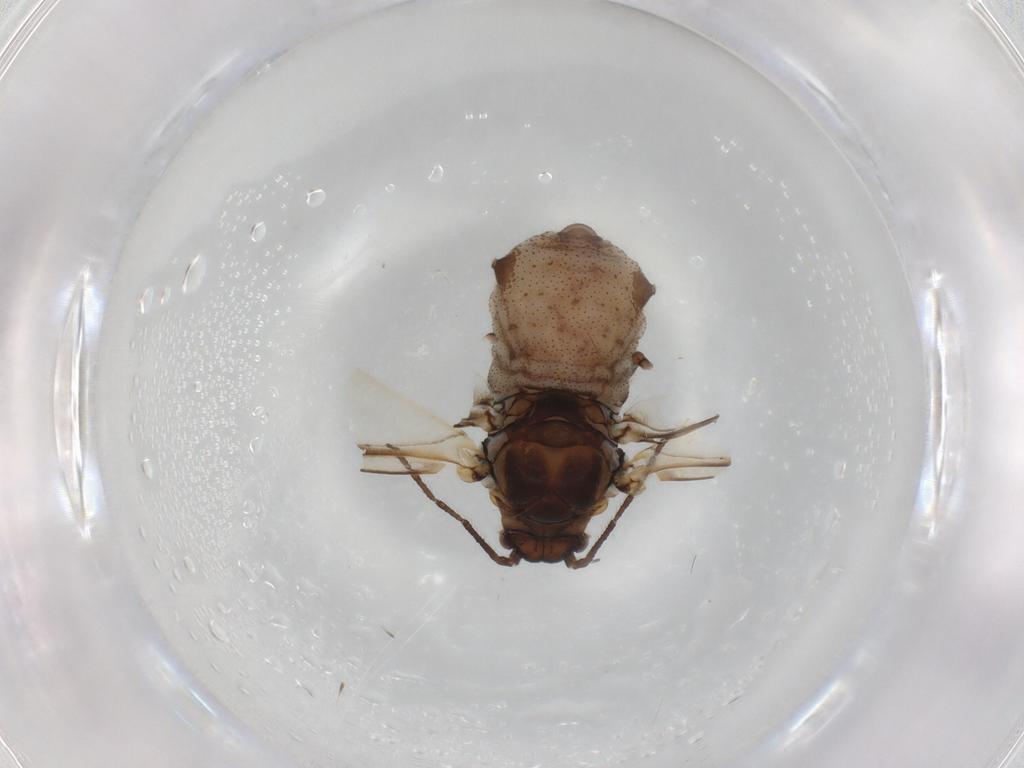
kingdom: Animalia
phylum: Arthropoda
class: Insecta
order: Hemiptera
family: Aphididae
